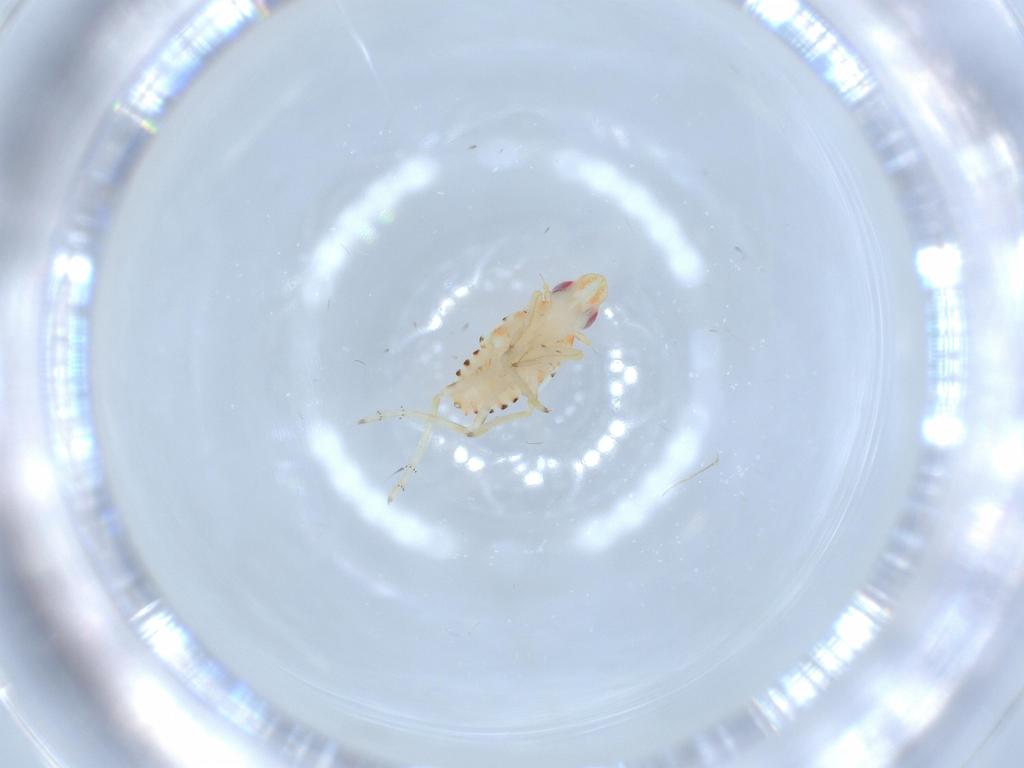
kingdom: Animalia
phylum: Arthropoda
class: Insecta
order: Hemiptera
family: Tropiduchidae
